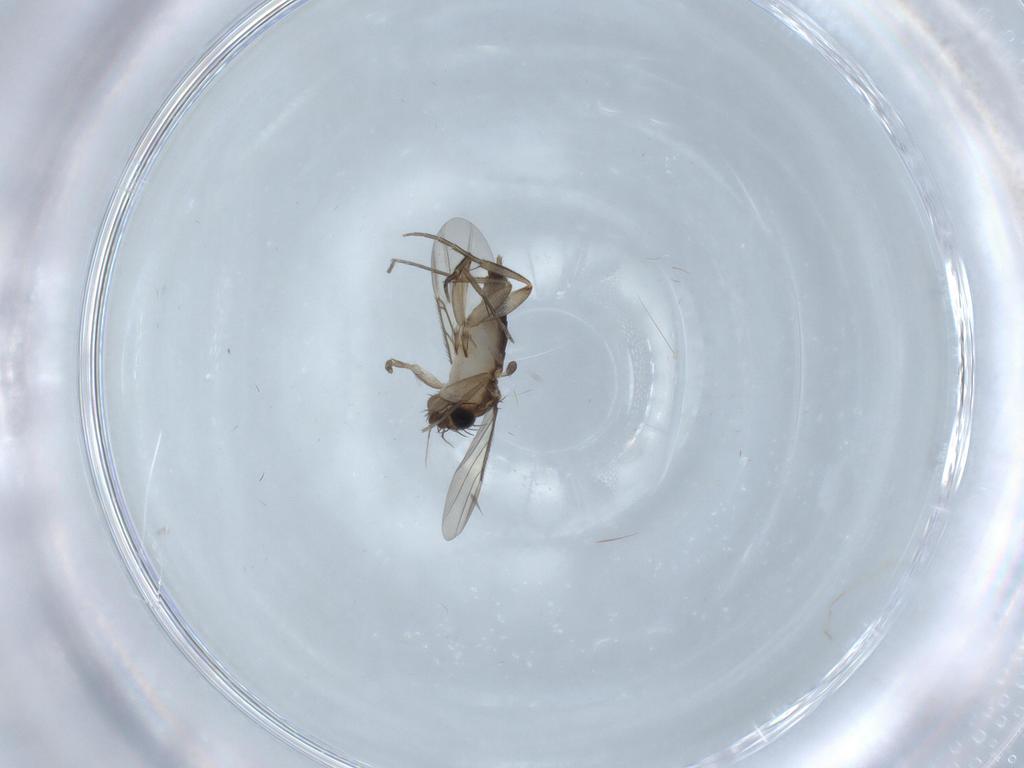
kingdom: Animalia
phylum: Arthropoda
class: Insecta
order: Diptera
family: Phoridae
